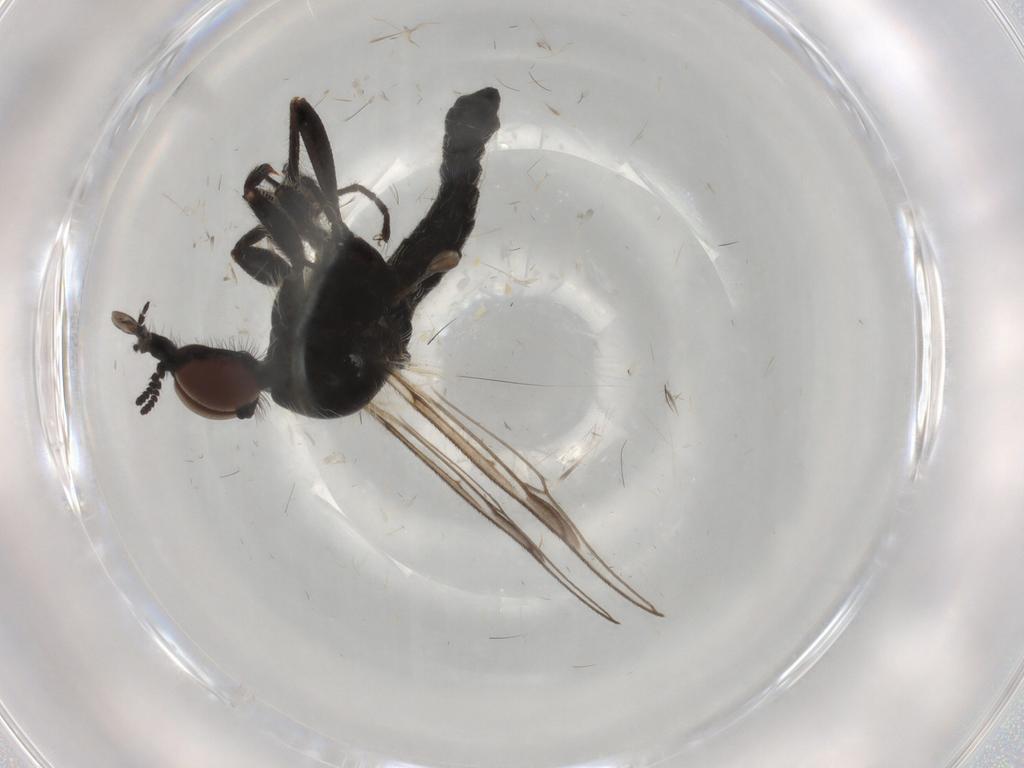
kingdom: Animalia
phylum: Arthropoda
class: Insecta
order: Diptera
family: Bibionidae
